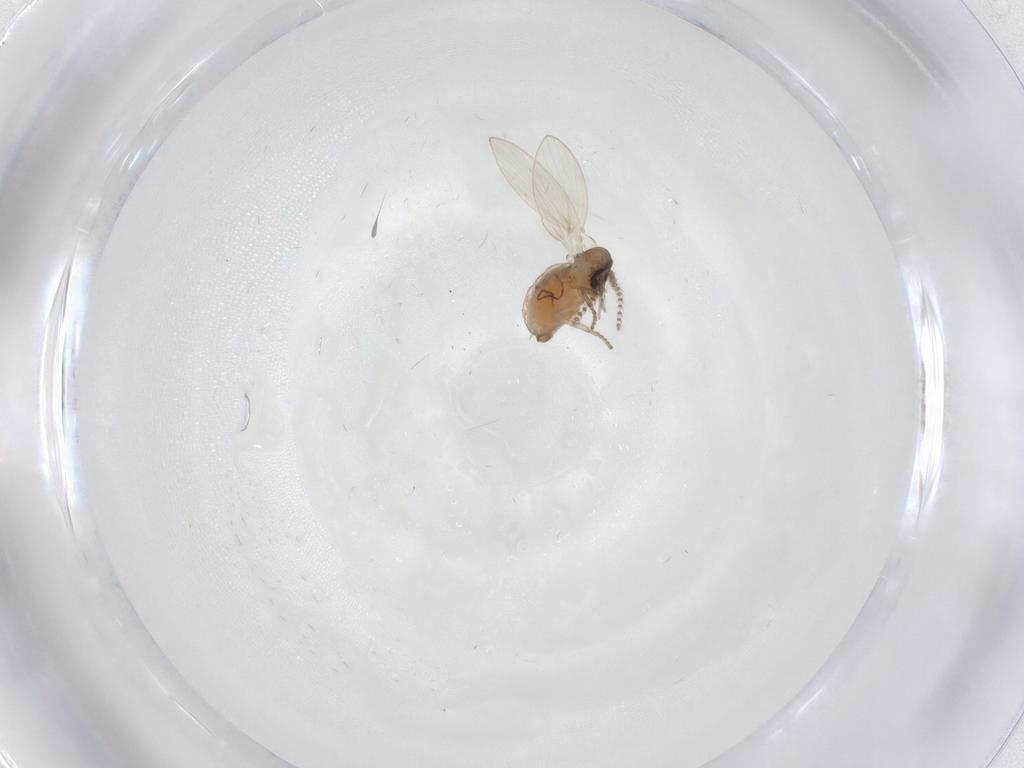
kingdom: Animalia
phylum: Arthropoda
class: Insecta
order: Diptera
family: Psychodidae
